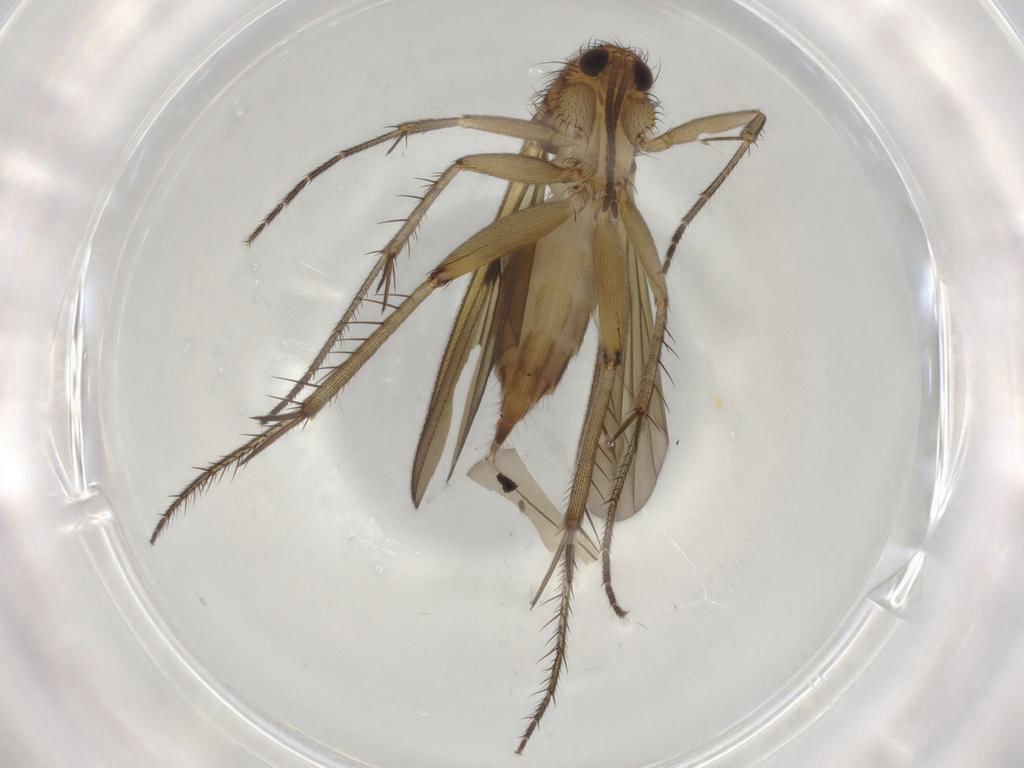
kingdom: Animalia
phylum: Arthropoda
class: Insecta
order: Diptera
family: Chironomidae
